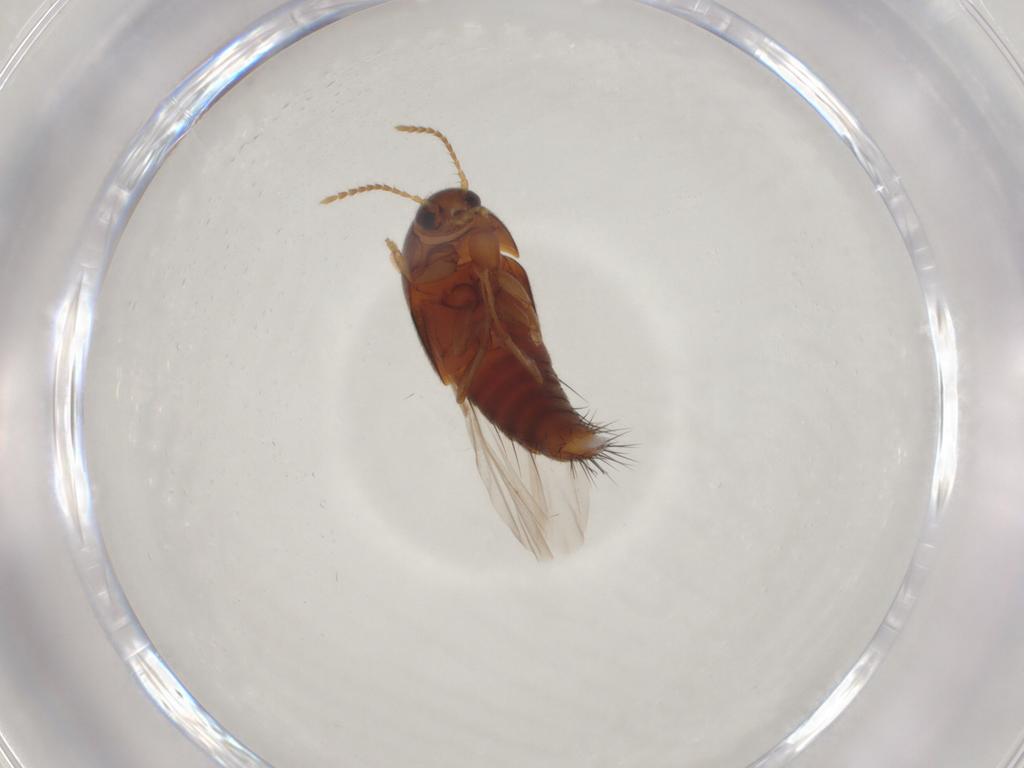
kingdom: Animalia
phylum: Arthropoda
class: Insecta
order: Coleoptera
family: Staphylinidae
